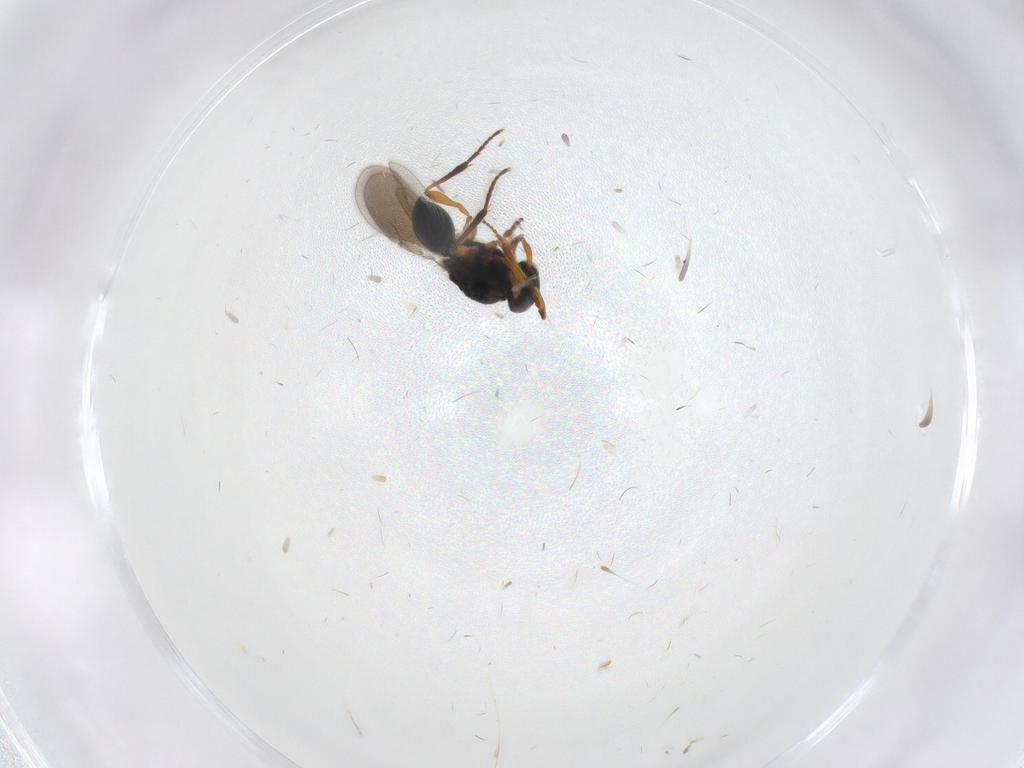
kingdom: Animalia
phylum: Arthropoda
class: Insecta
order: Hymenoptera
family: Platygastridae
